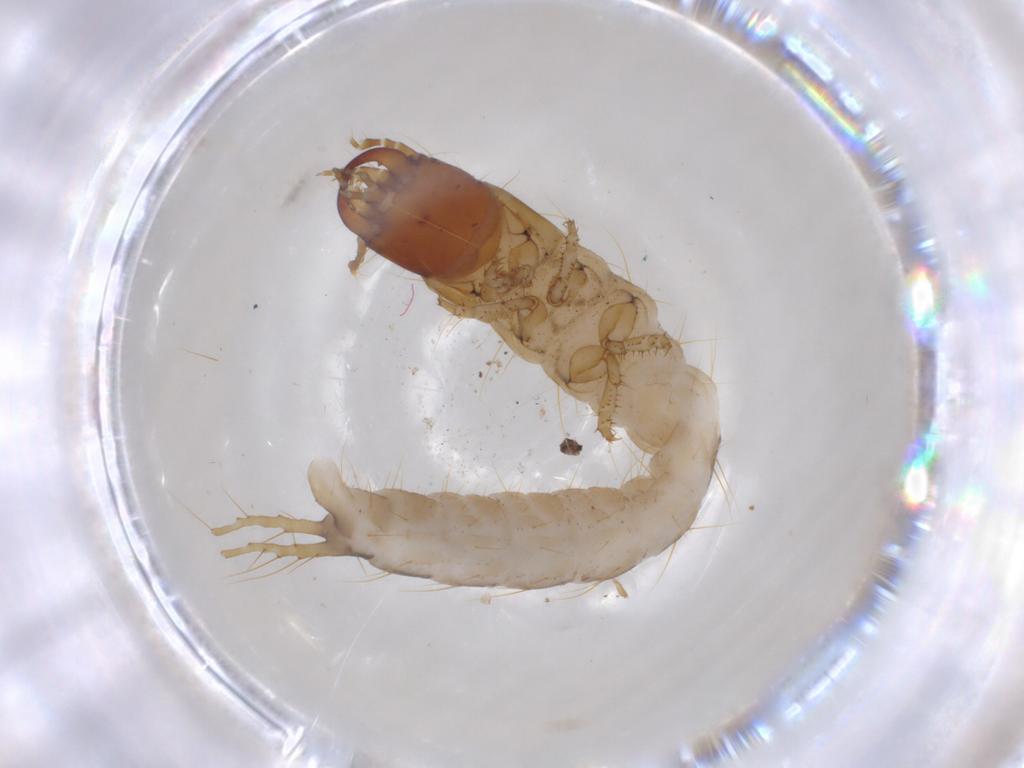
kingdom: Animalia
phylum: Arthropoda
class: Insecta
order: Coleoptera
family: Carabidae
